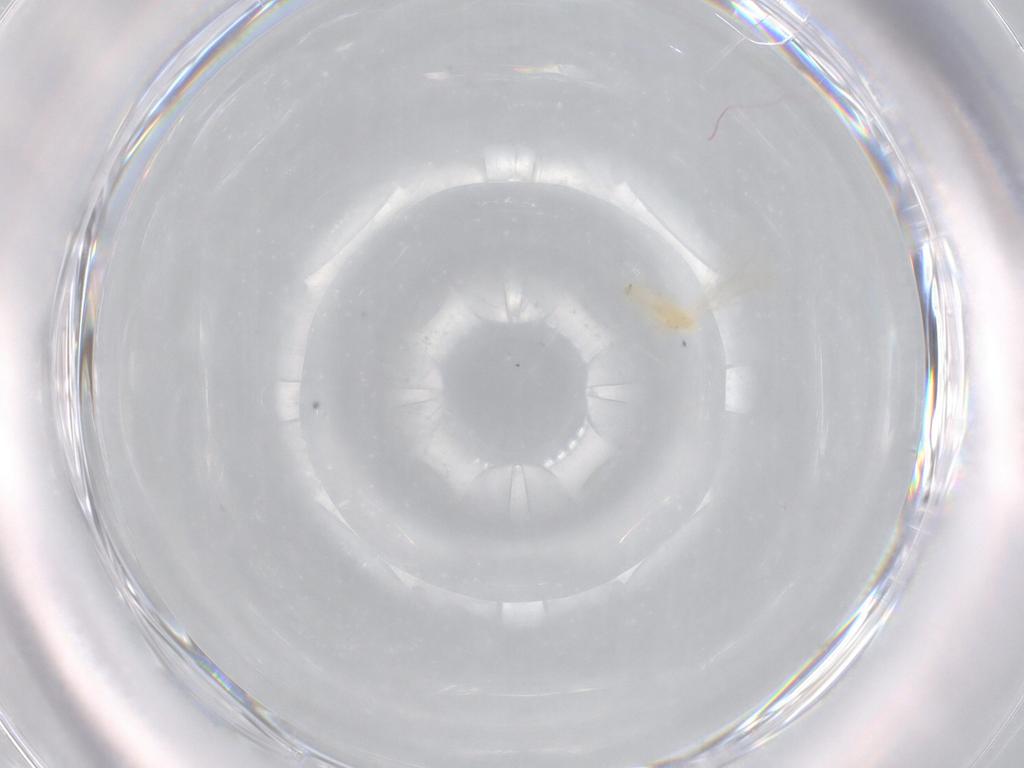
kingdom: Animalia
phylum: Arthropoda
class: Insecta
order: Diptera
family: Cecidomyiidae
